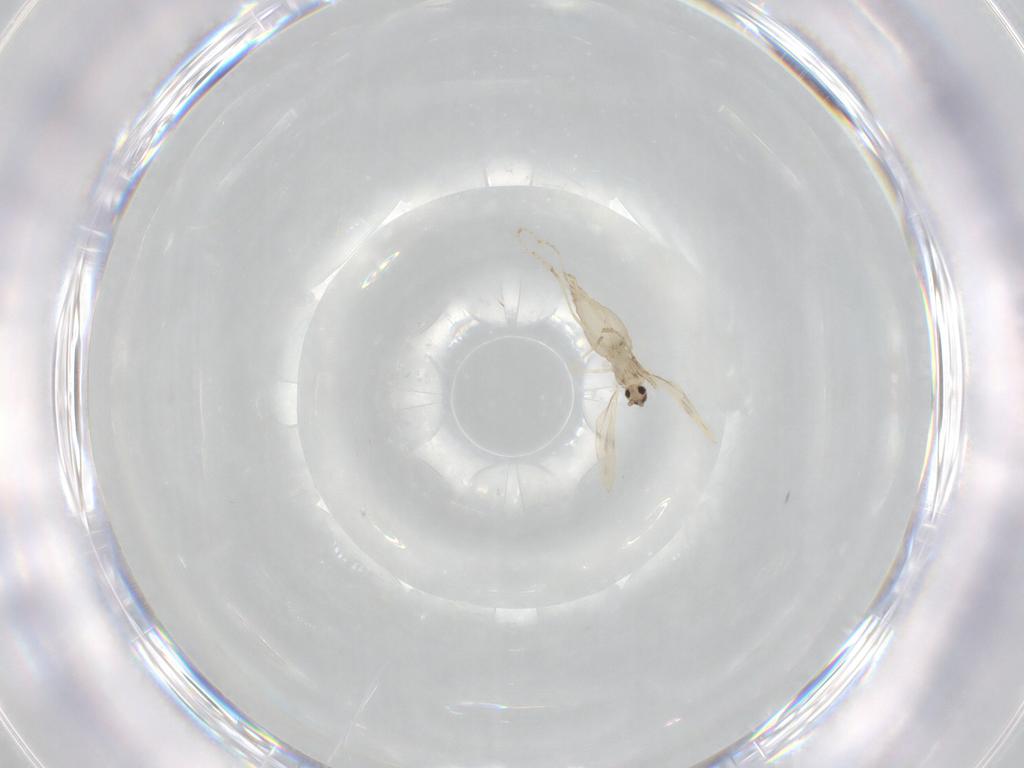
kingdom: Animalia
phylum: Arthropoda
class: Insecta
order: Diptera
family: Cecidomyiidae
